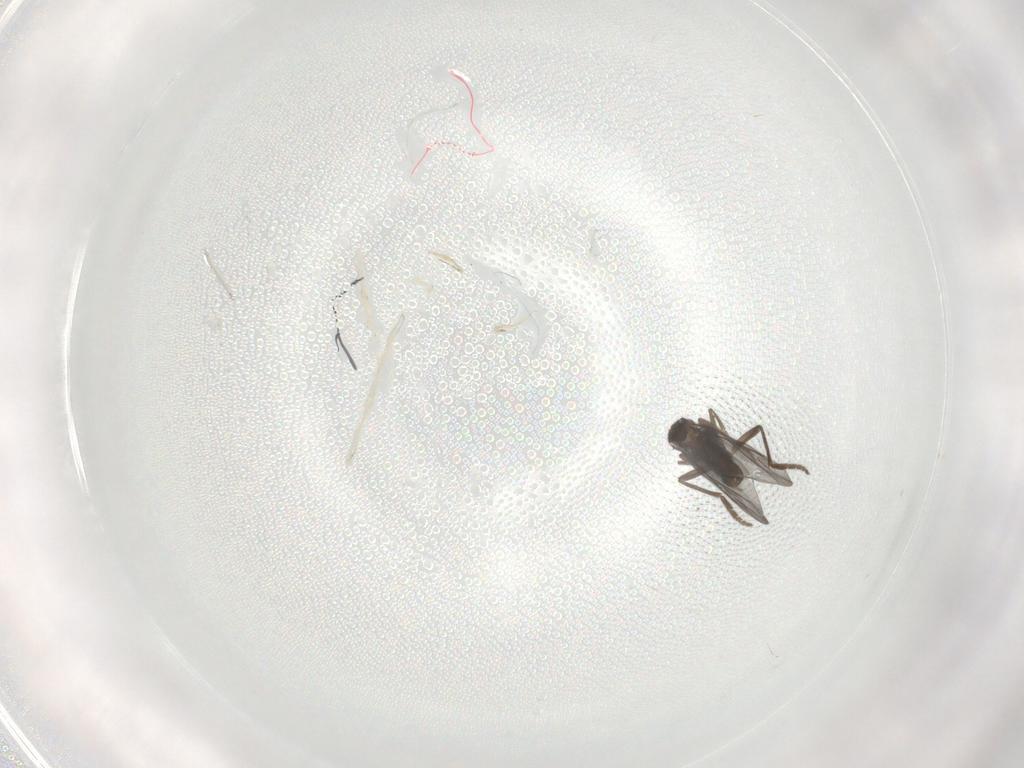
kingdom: Animalia
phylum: Arthropoda
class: Insecta
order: Diptera
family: Phoridae
